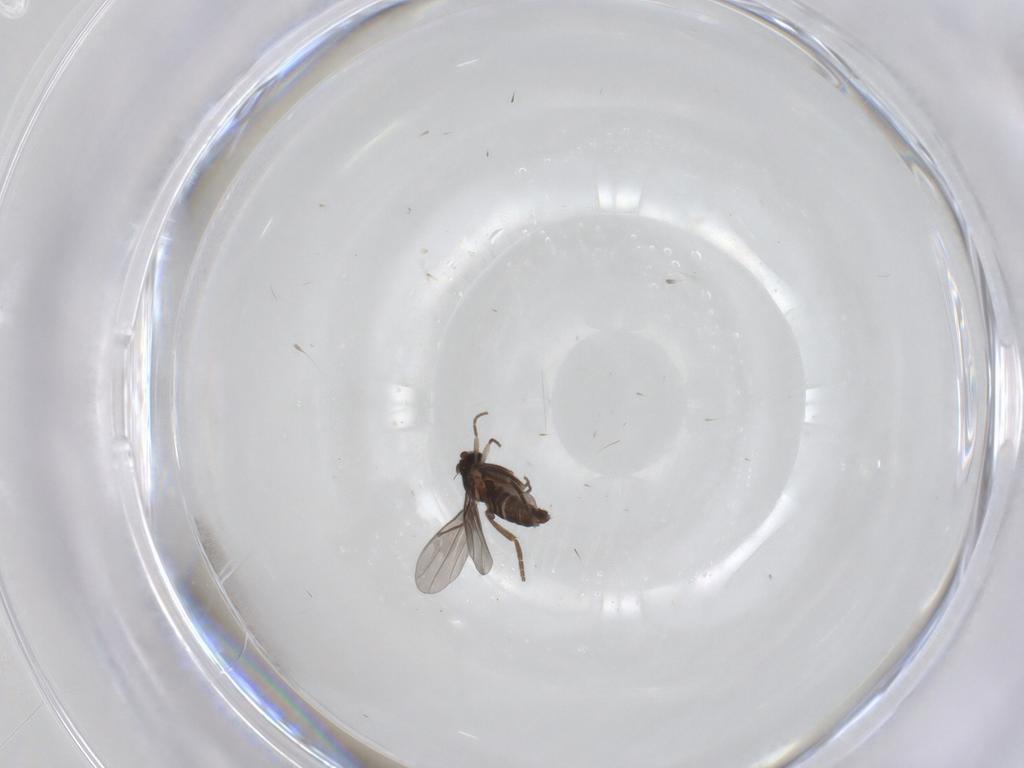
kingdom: Animalia
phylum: Arthropoda
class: Insecta
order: Diptera
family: Phoridae
